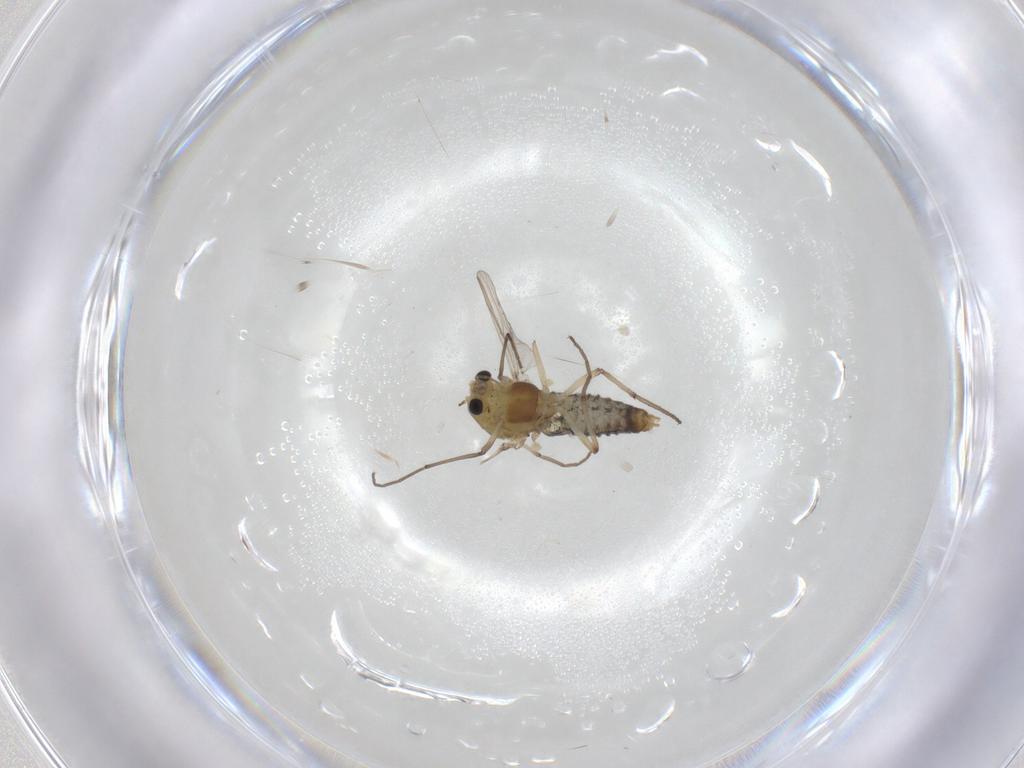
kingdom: Animalia
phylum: Arthropoda
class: Insecta
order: Diptera
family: Chironomidae
